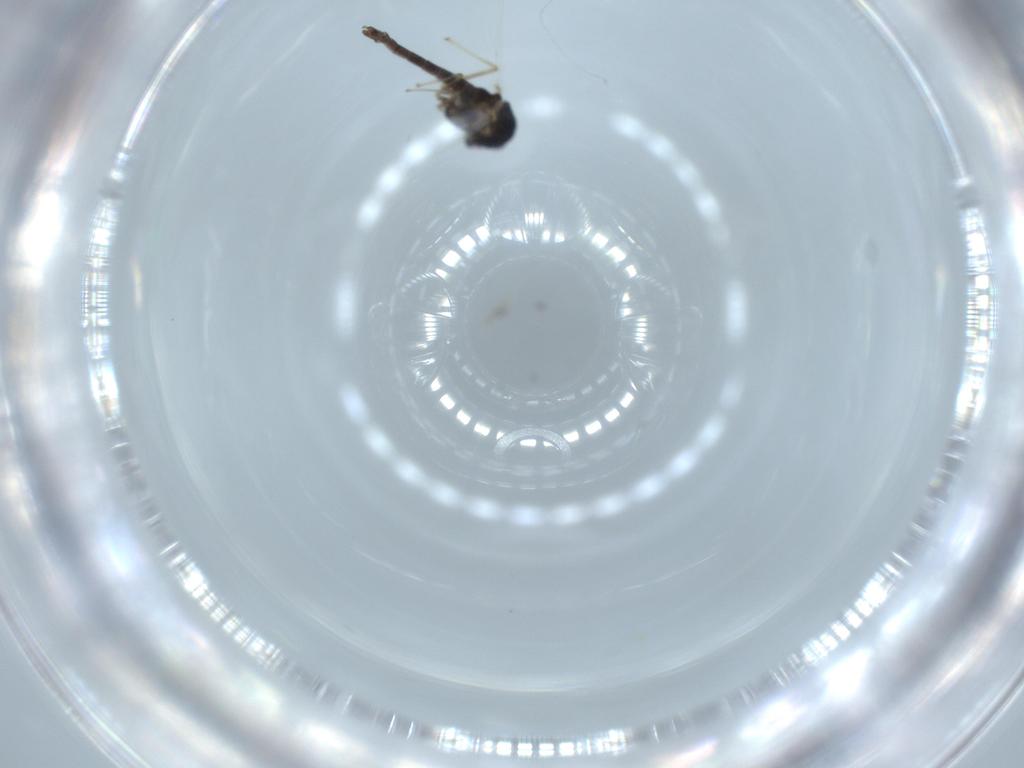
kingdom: Animalia
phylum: Arthropoda
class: Insecta
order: Diptera
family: Chironomidae
